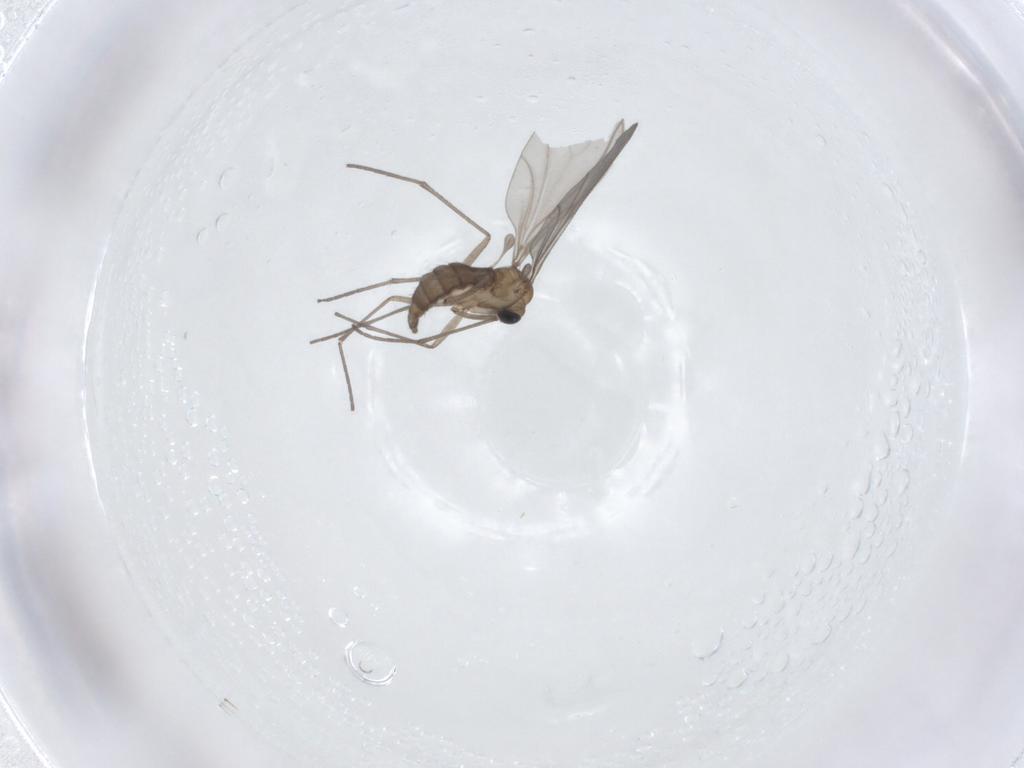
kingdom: Animalia
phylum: Arthropoda
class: Insecta
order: Diptera
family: Sciaridae
